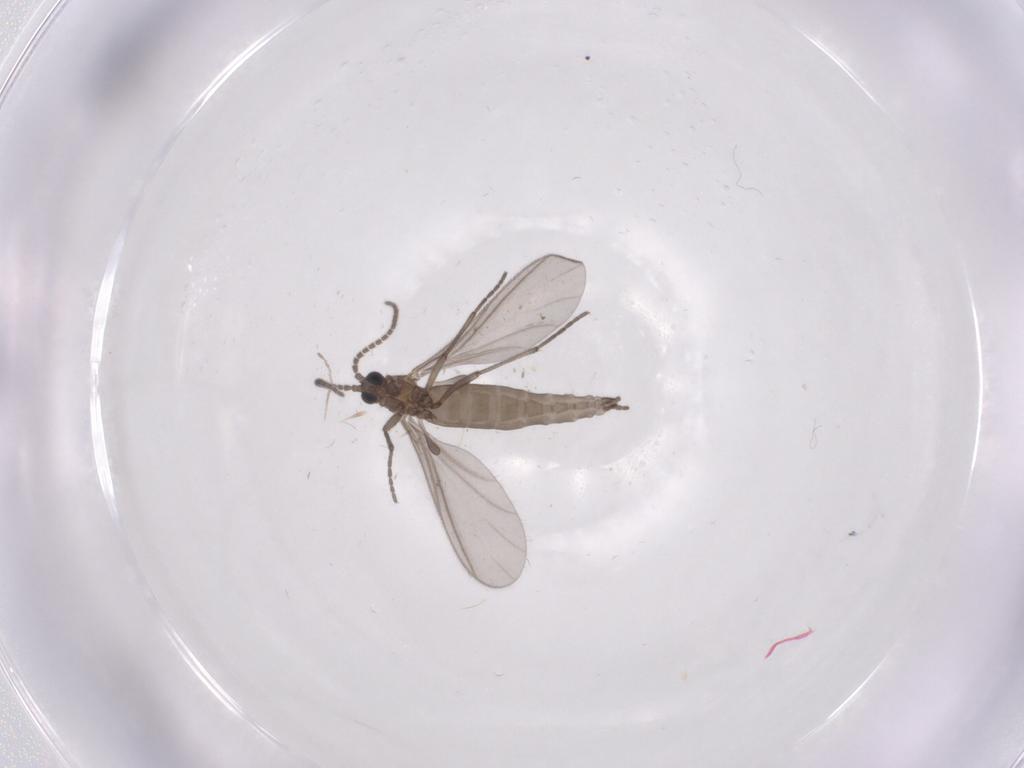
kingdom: Animalia
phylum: Arthropoda
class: Insecta
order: Diptera
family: Sciaridae
